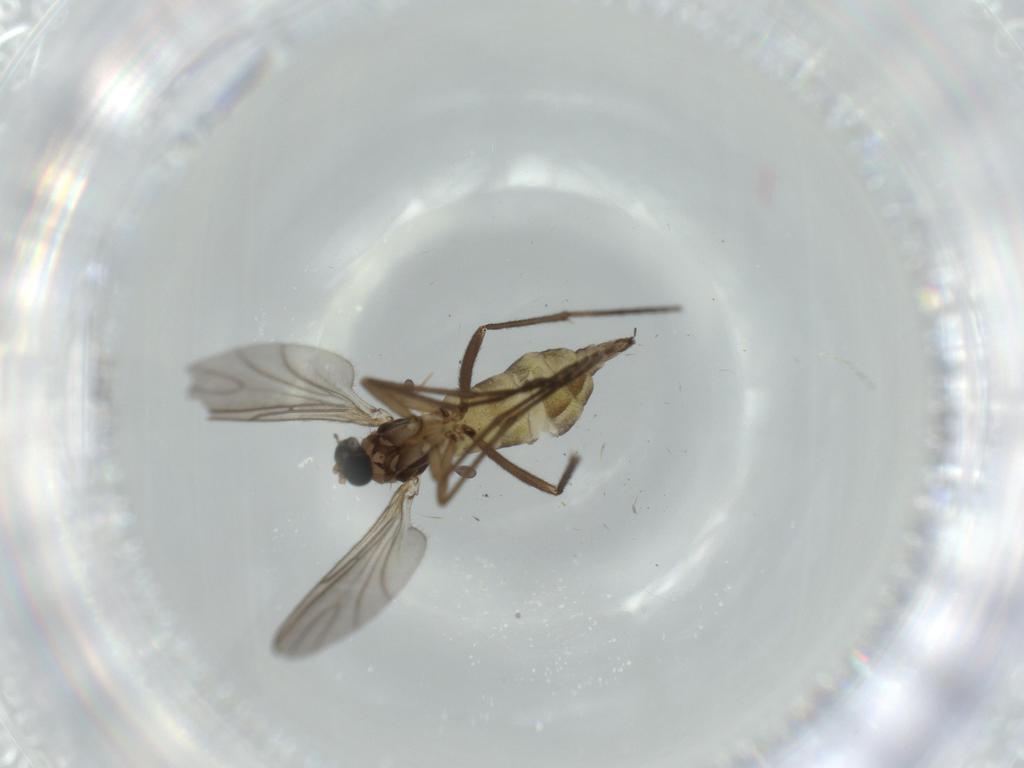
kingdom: Animalia
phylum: Arthropoda
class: Insecta
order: Diptera
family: Sciaridae
